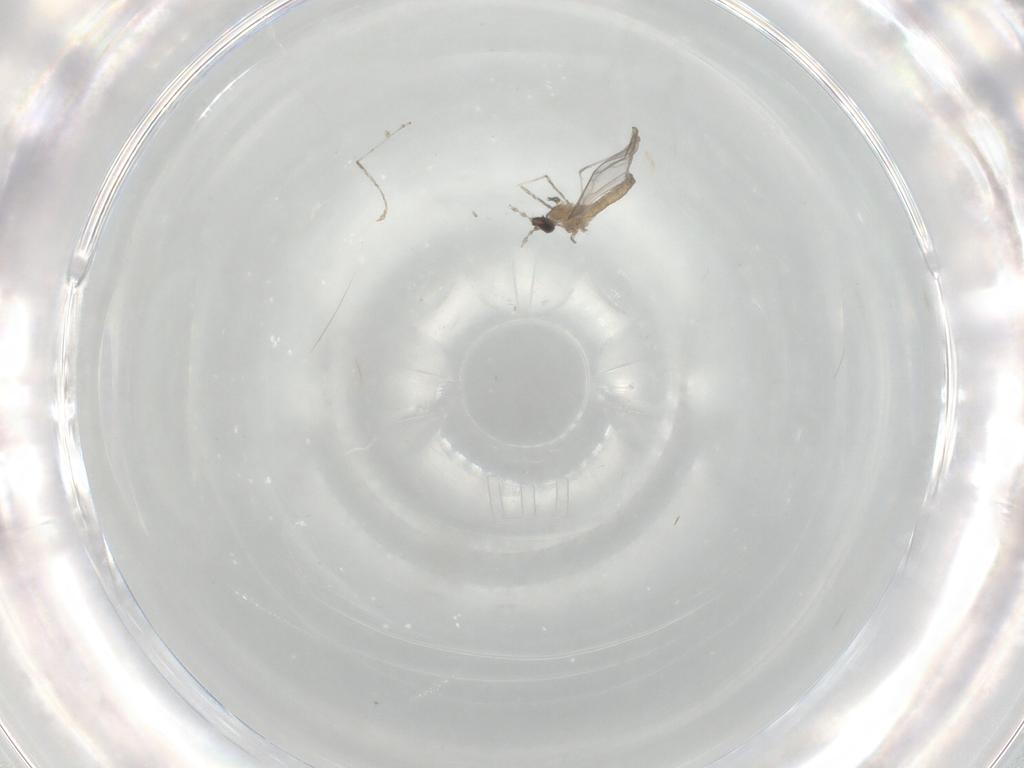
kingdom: Animalia
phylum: Arthropoda
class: Insecta
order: Diptera
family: Cecidomyiidae
